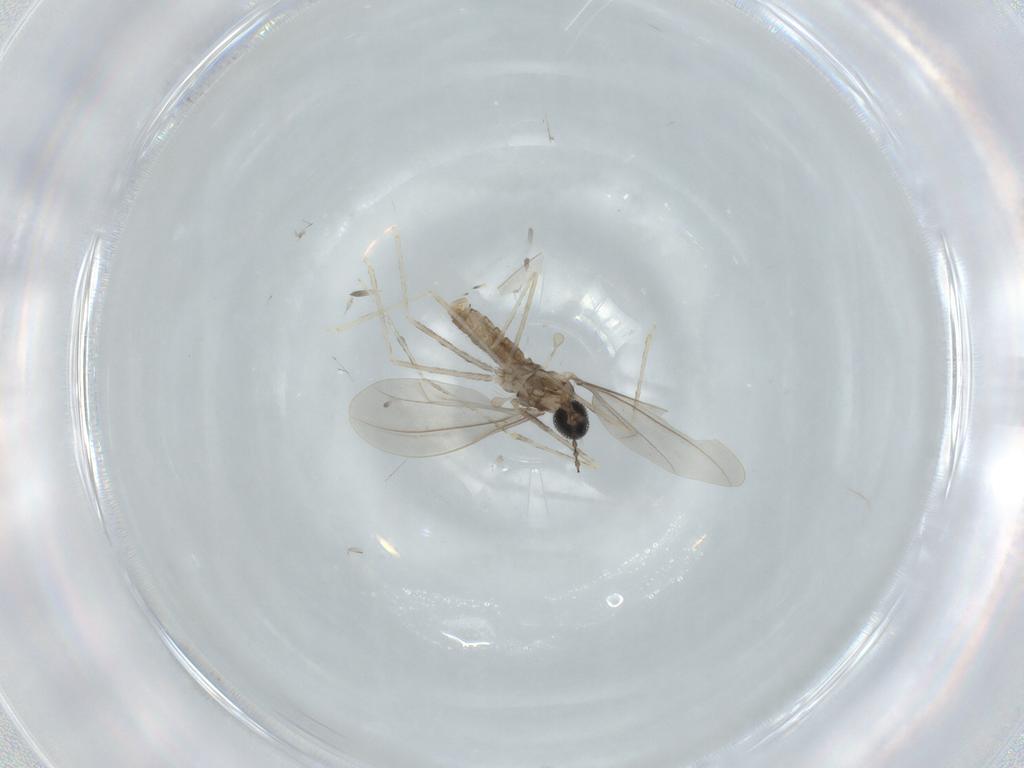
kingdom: Animalia
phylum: Arthropoda
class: Insecta
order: Diptera
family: Cecidomyiidae
